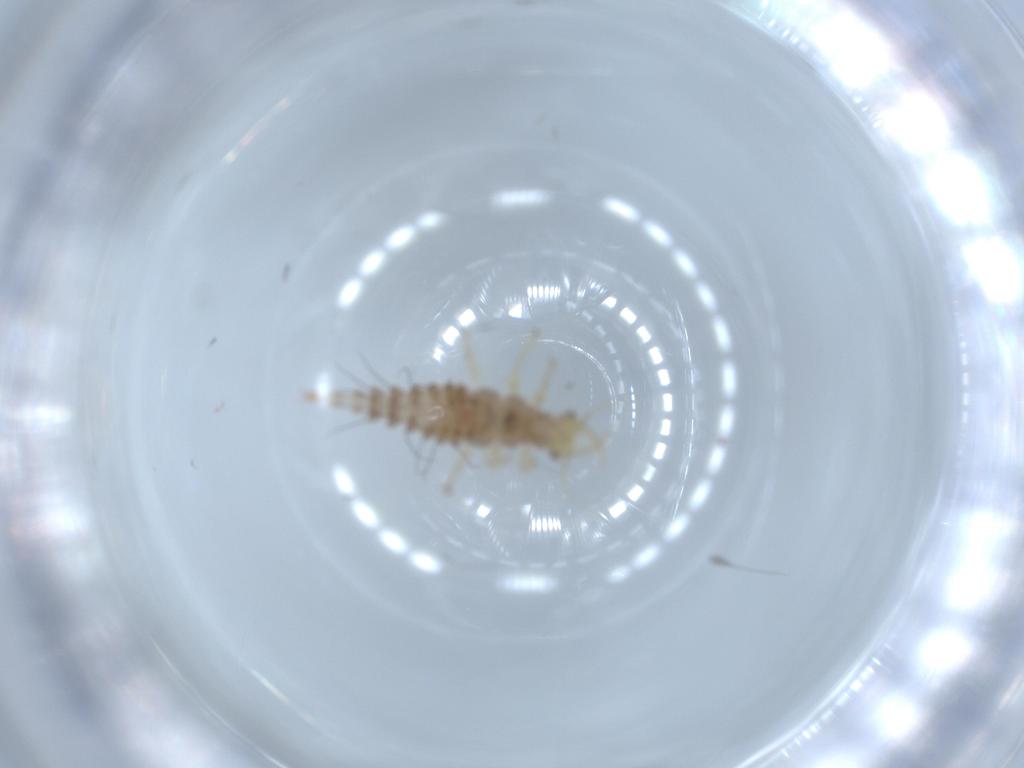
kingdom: Animalia
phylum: Arthropoda
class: Insecta
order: Neuroptera
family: Chrysopidae
